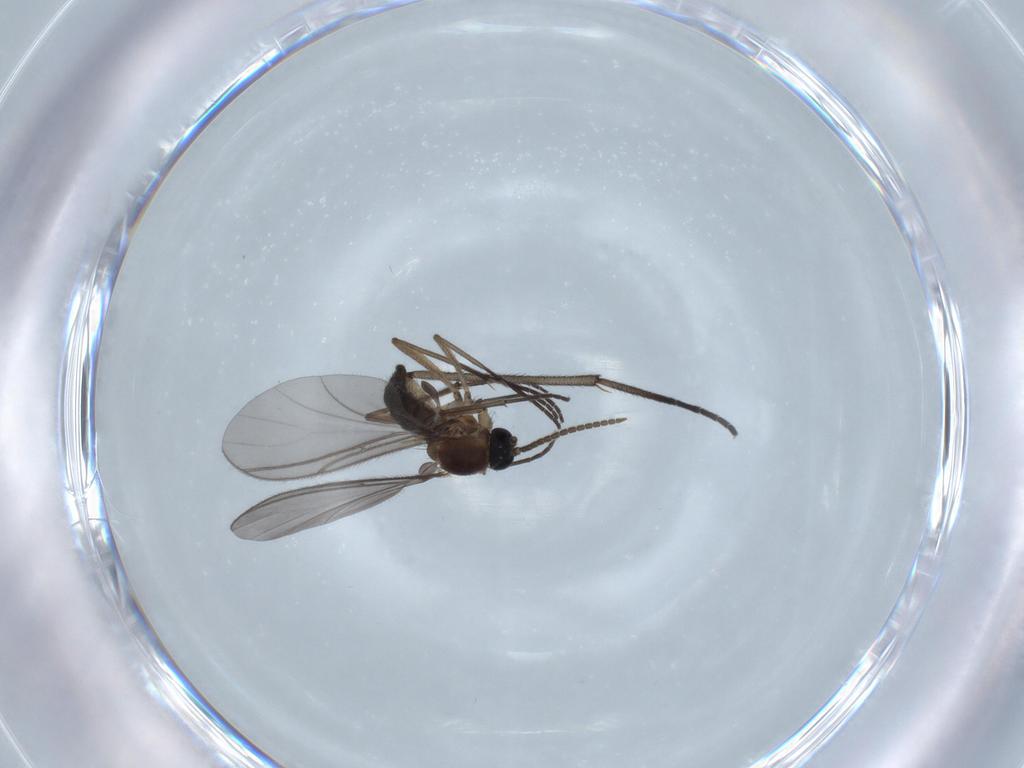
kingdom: Animalia
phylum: Arthropoda
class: Insecta
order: Diptera
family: Sciaridae
